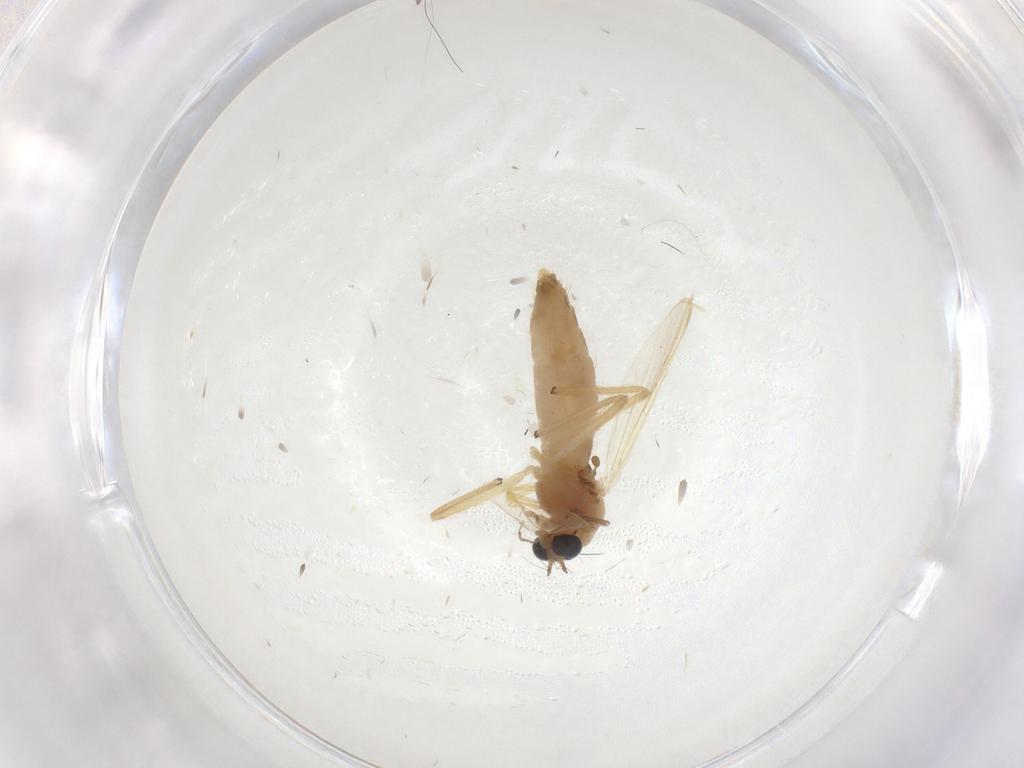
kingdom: Animalia
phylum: Arthropoda
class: Insecta
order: Diptera
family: Chironomidae
